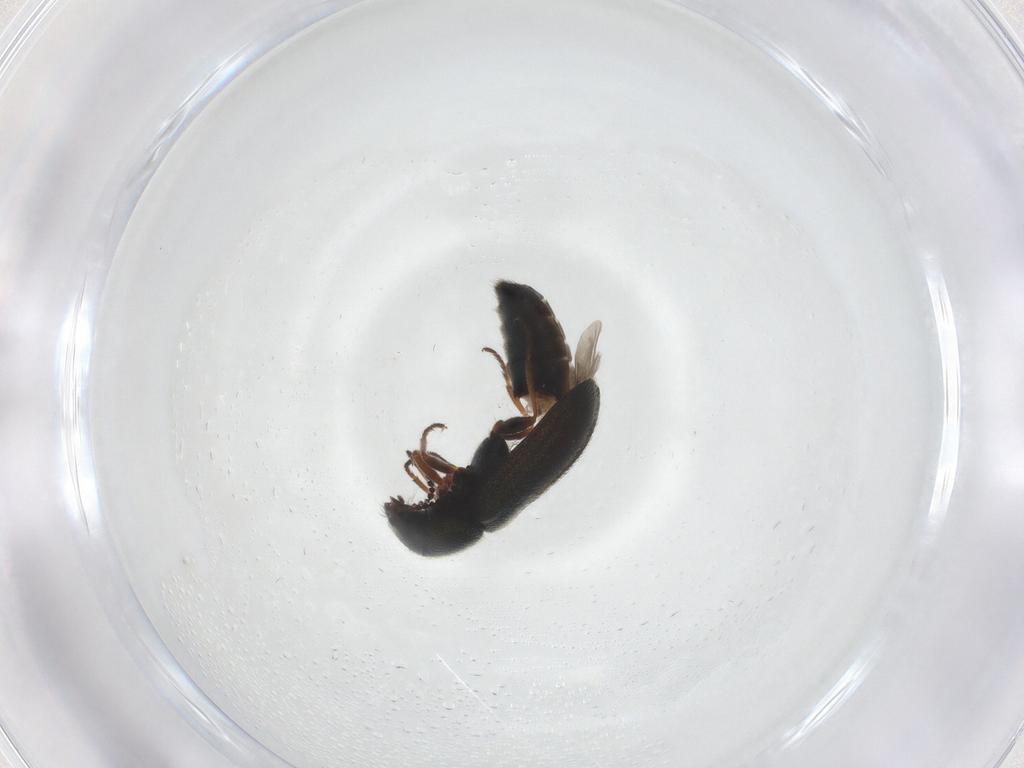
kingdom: Animalia
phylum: Arthropoda
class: Insecta
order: Coleoptera
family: Melyridae
